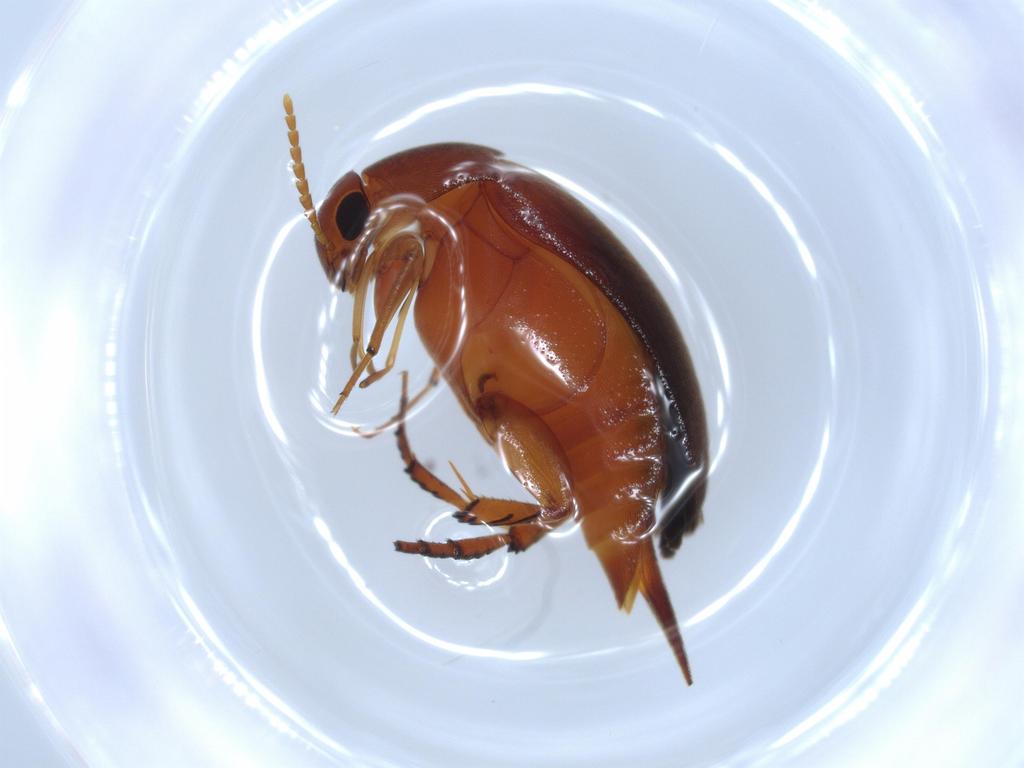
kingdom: Animalia
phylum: Arthropoda
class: Insecta
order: Coleoptera
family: Mordellidae
